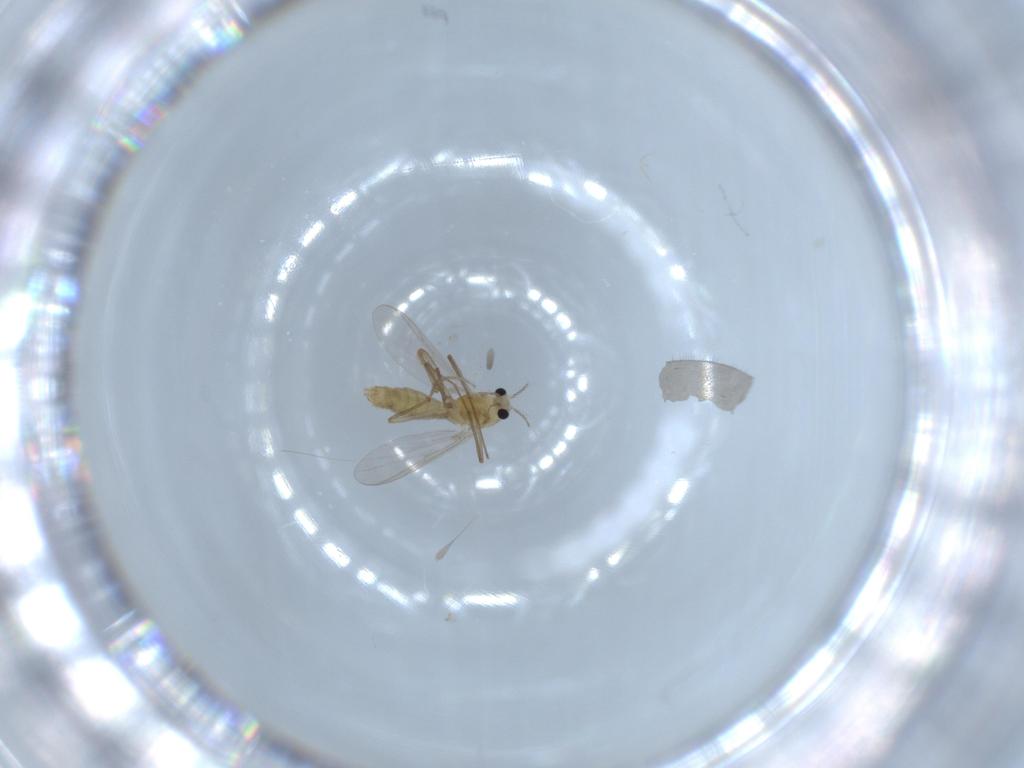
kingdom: Animalia
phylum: Arthropoda
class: Insecta
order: Diptera
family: Chironomidae
